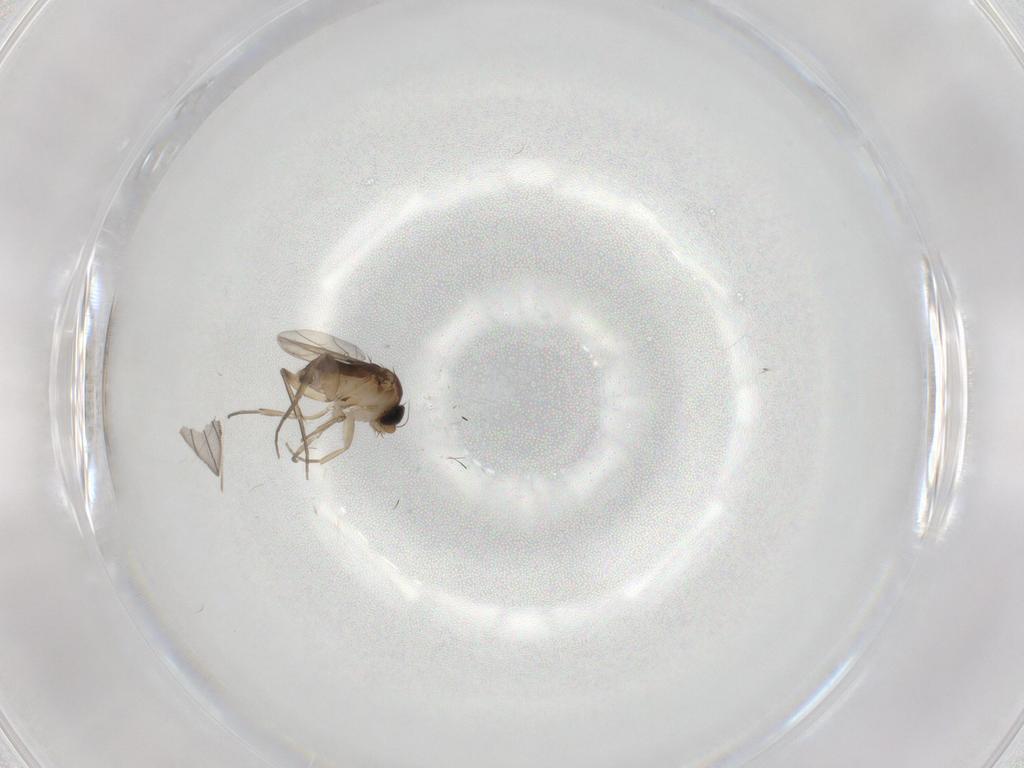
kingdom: Animalia
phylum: Arthropoda
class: Insecta
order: Diptera
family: Phoridae
